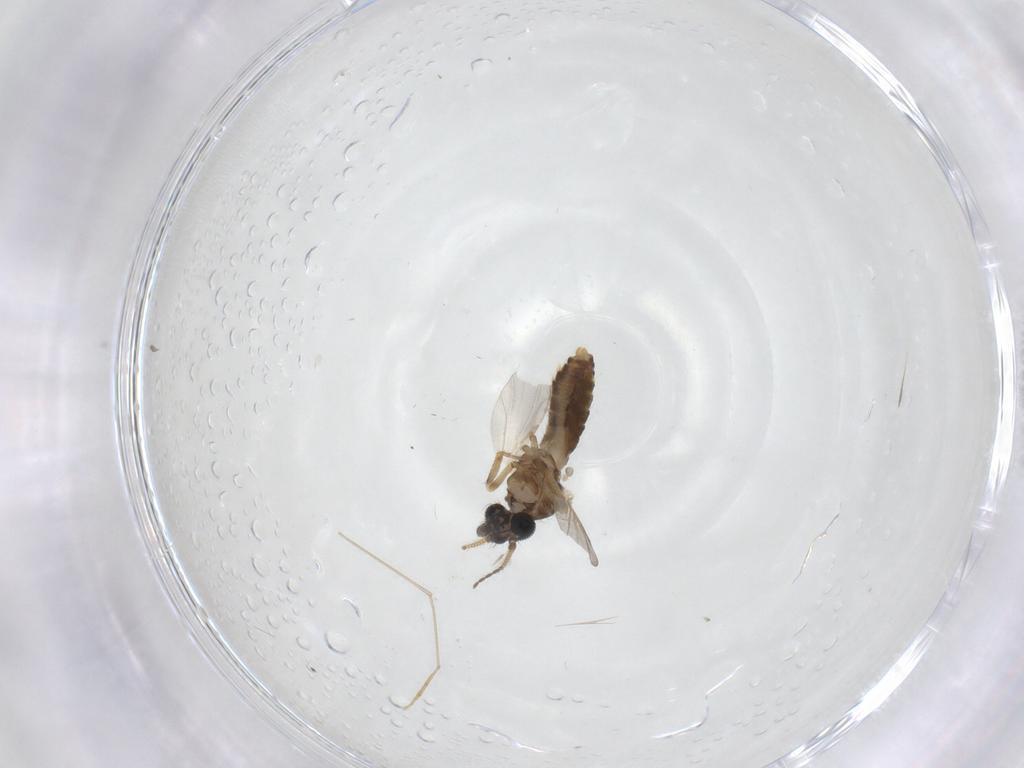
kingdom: Animalia
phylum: Arthropoda
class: Insecta
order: Diptera
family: Ceratopogonidae
